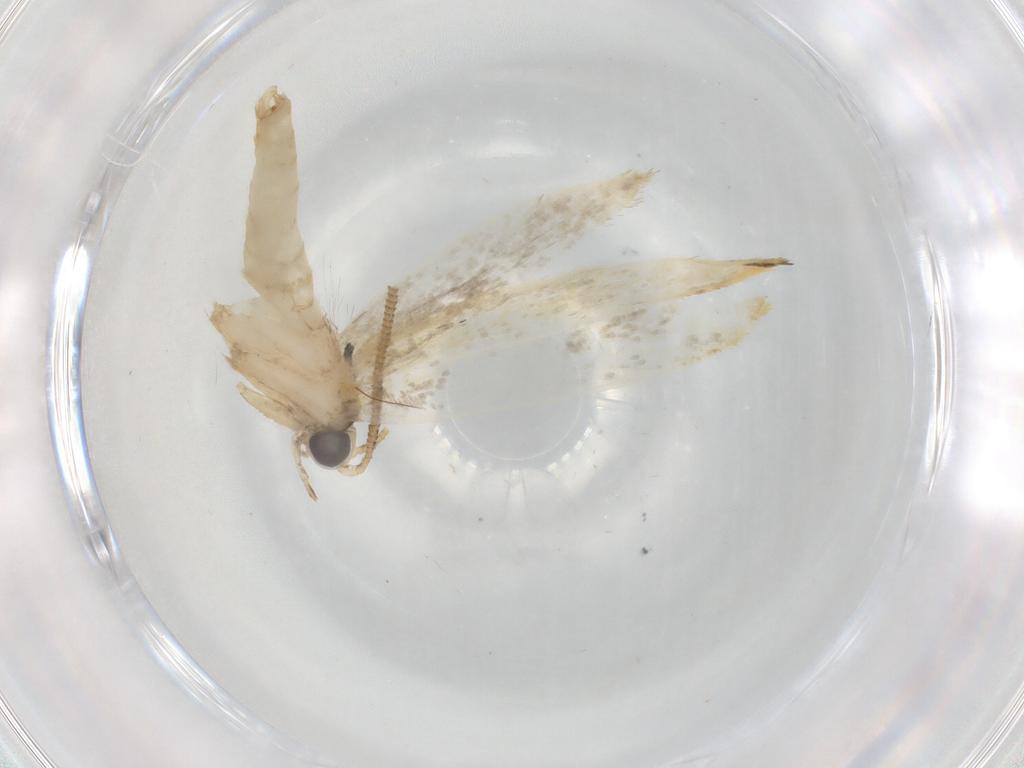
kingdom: Animalia
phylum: Arthropoda
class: Insecta
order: Lepidoptera
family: Tineidae
